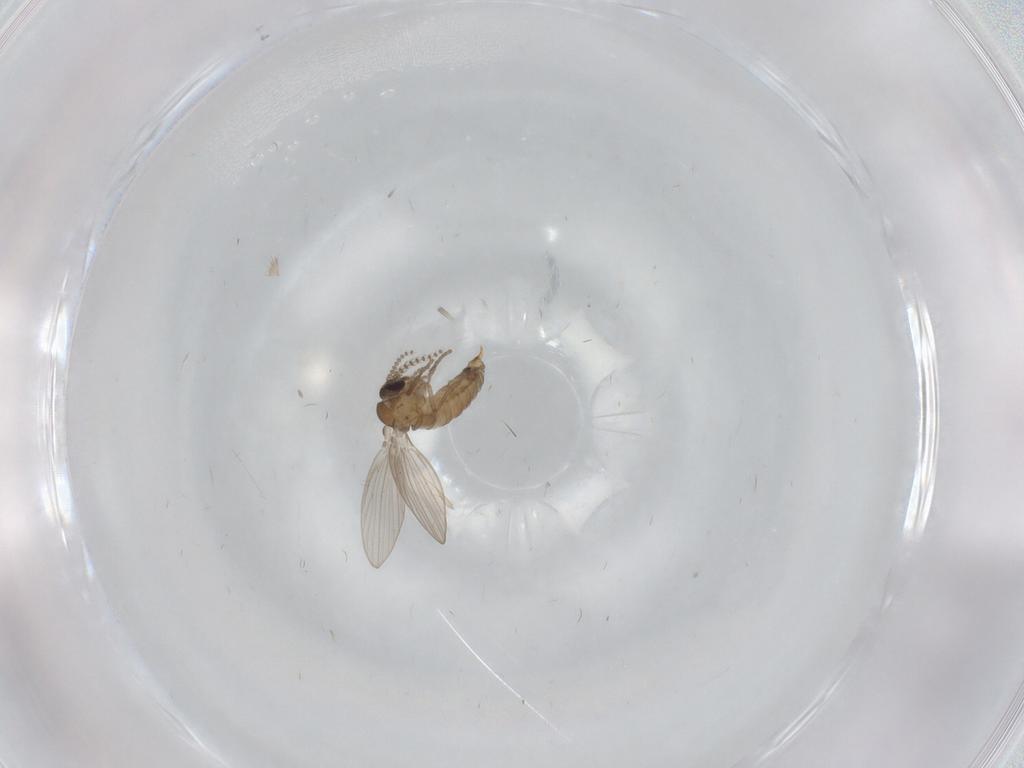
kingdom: Animalia
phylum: Arthropoda
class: Insecta
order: Diptera
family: Psychodidae
